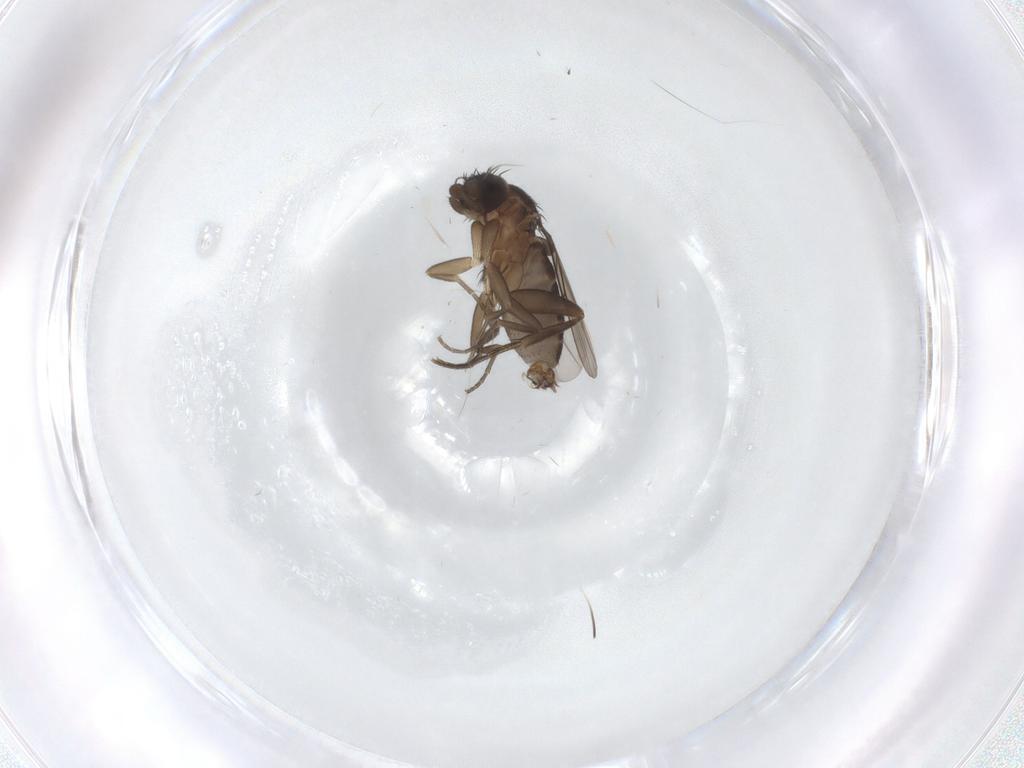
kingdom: Animalia
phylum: Arthropoda
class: Insecta
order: Diptera
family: Phoridae
